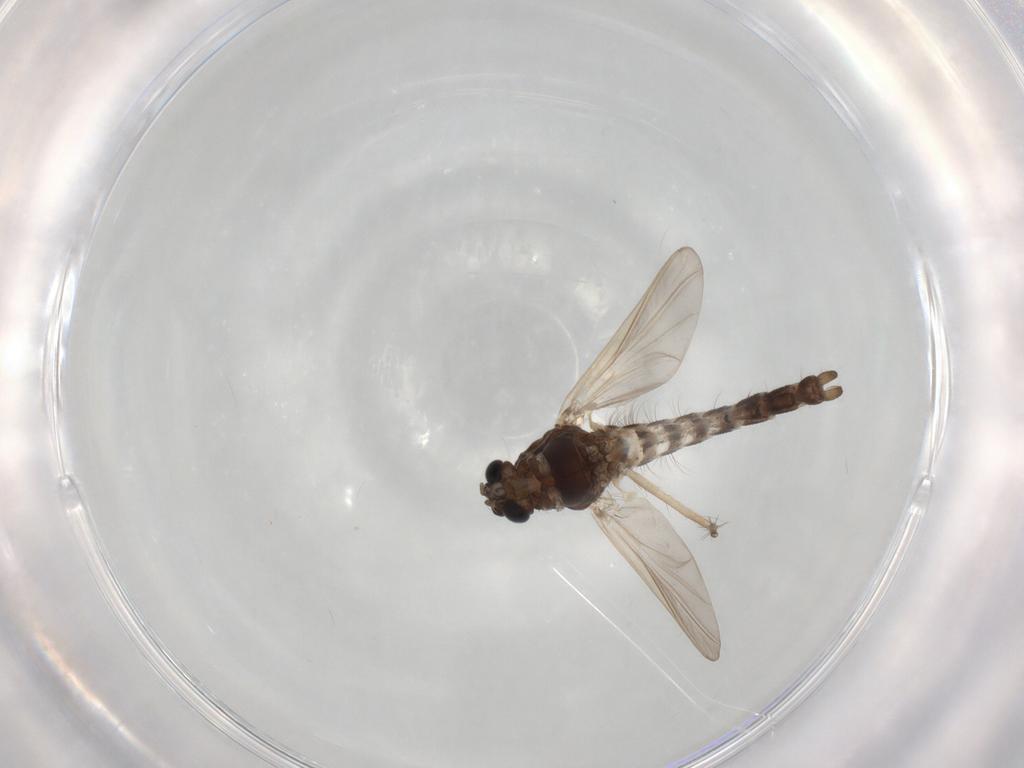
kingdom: Animalia
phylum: Arthropoda
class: Insecta
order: Diptera
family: Chironomidae
